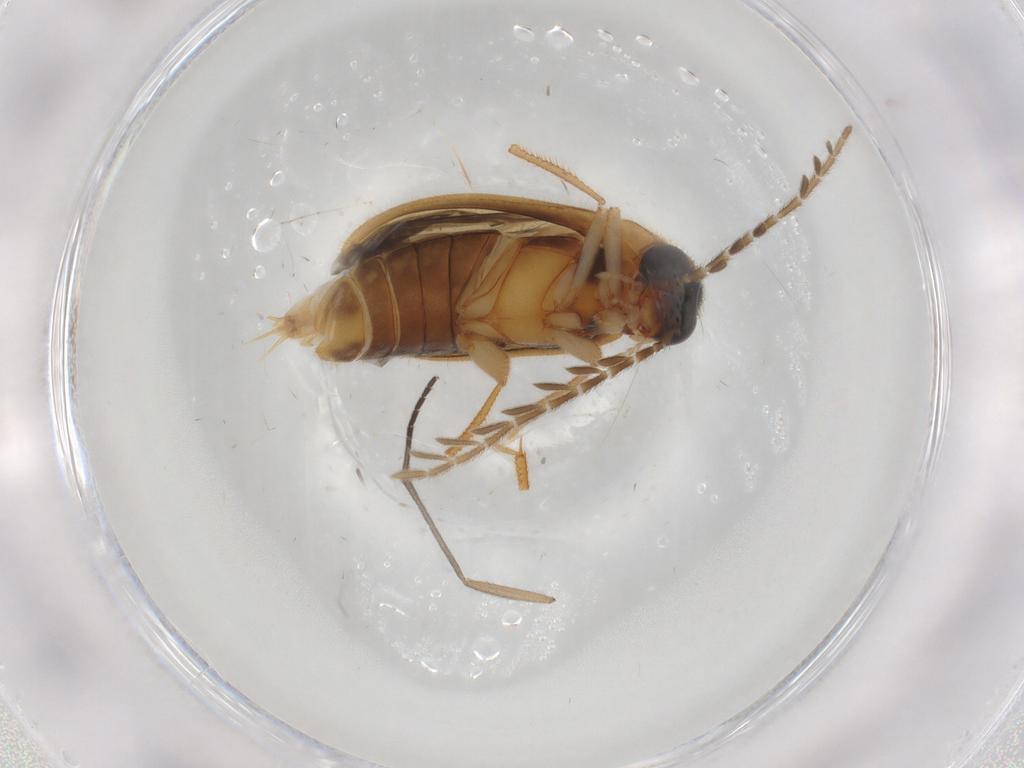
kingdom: Animalia
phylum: Arthropoda
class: Insecta
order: Coleoptera
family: Ptilodactylidae
